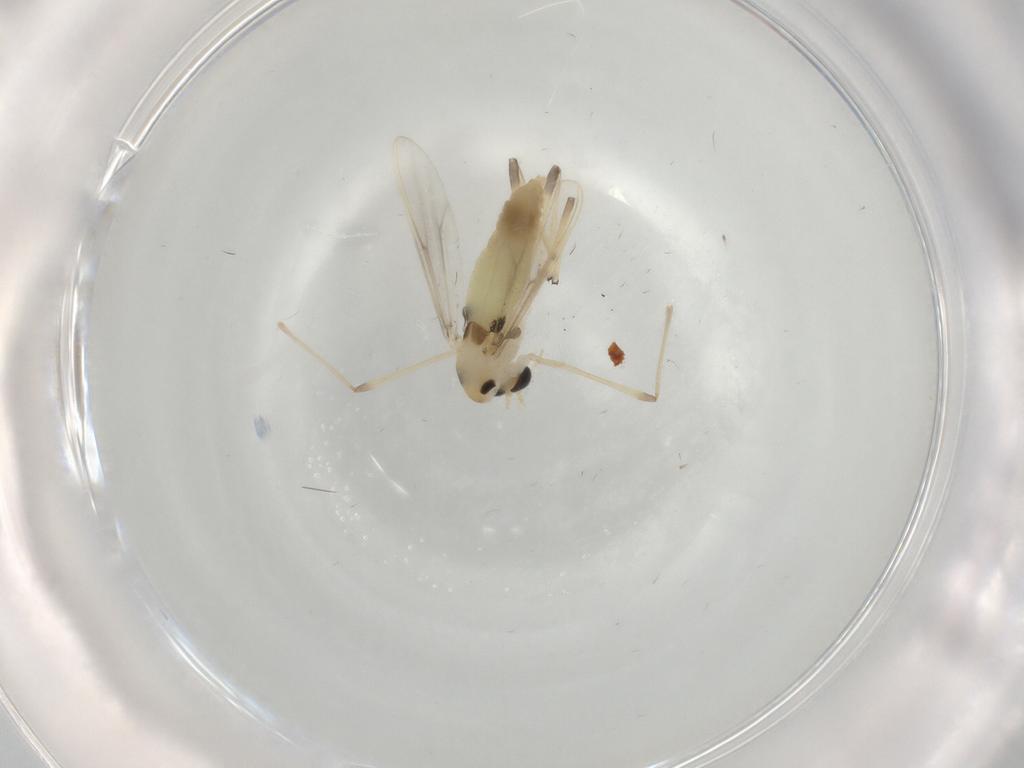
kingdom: Animalia
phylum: Arthropoda
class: Insecta
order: Diptera
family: Chironomidae
